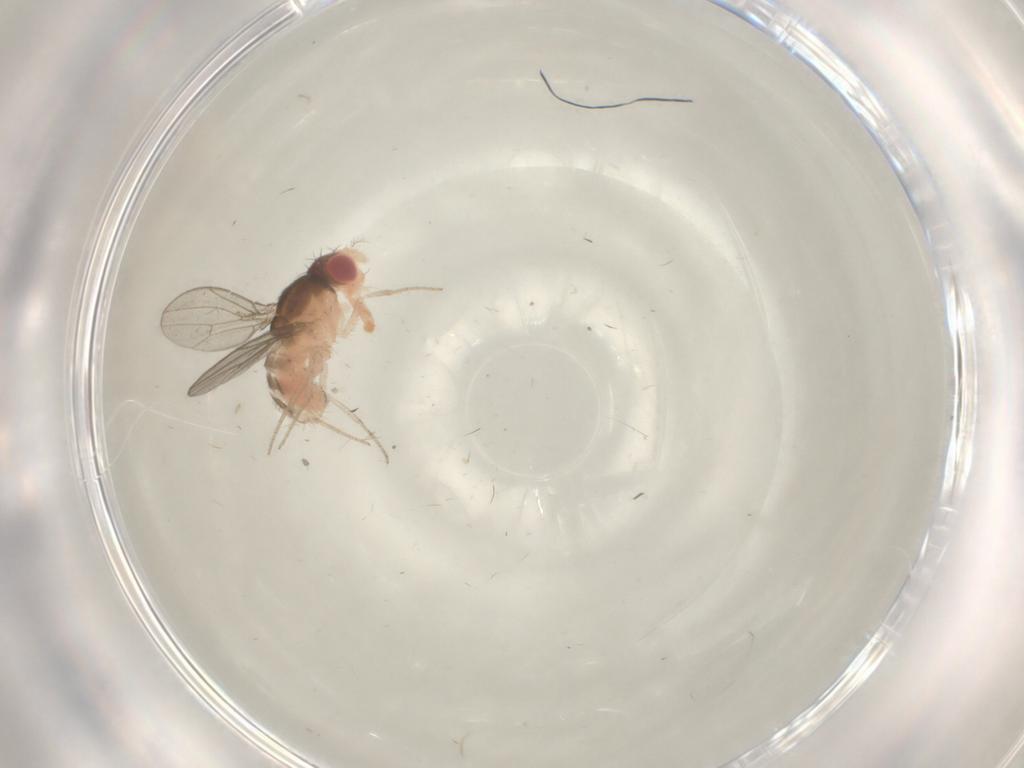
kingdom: Animalia
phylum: Arthropoda
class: Insecta
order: Diptera
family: Drosophilidae
